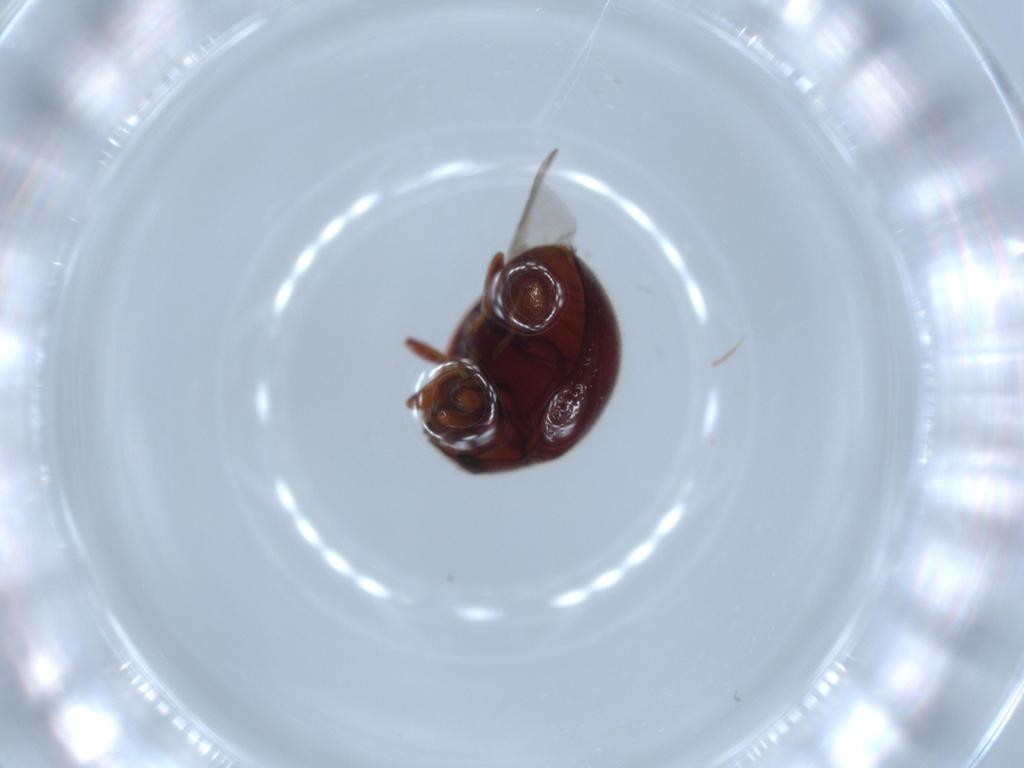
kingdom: Animalia
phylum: Arthropoda
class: Insecta
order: Coleoptera
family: Coccinellidae
